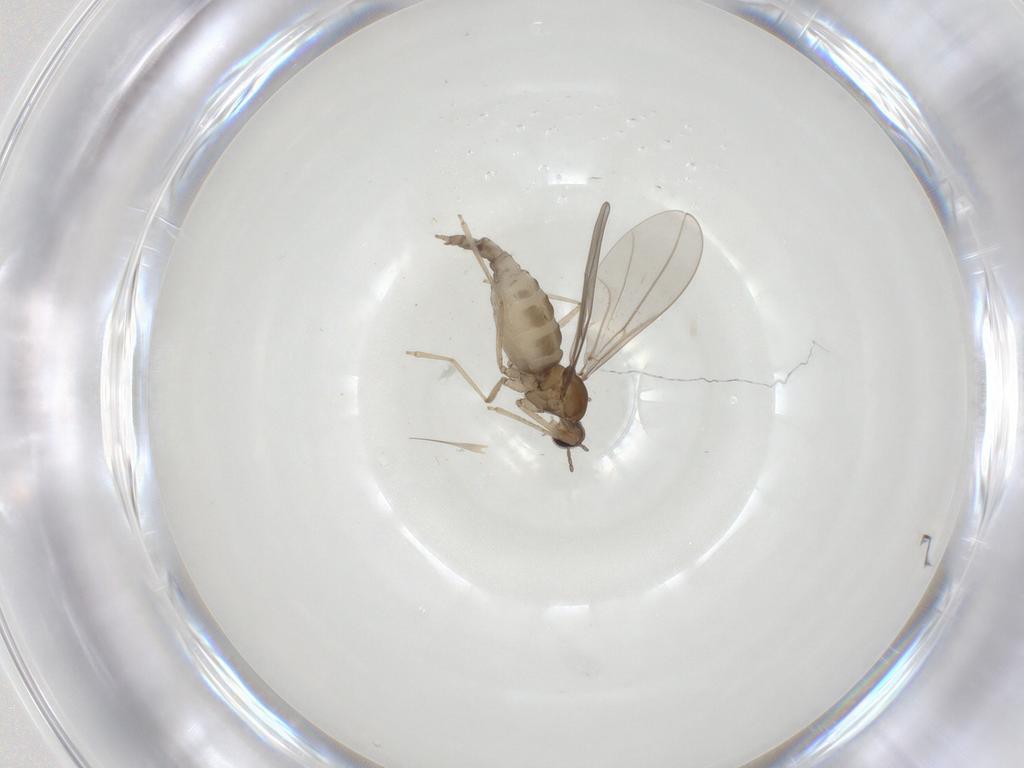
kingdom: Animalia
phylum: Arthropoda
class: Insecta
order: Diptera
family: Cecidomyiidae
